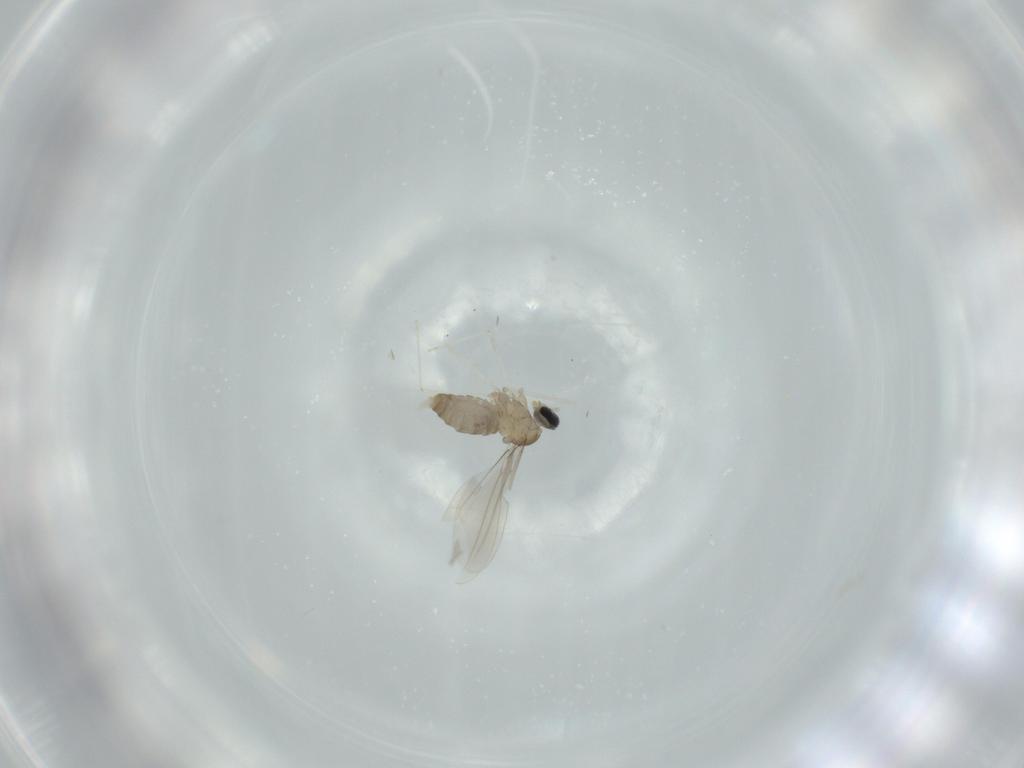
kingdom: Animalia
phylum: Arthropoda
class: Insecta
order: Diptera
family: Cecidomyiidae
